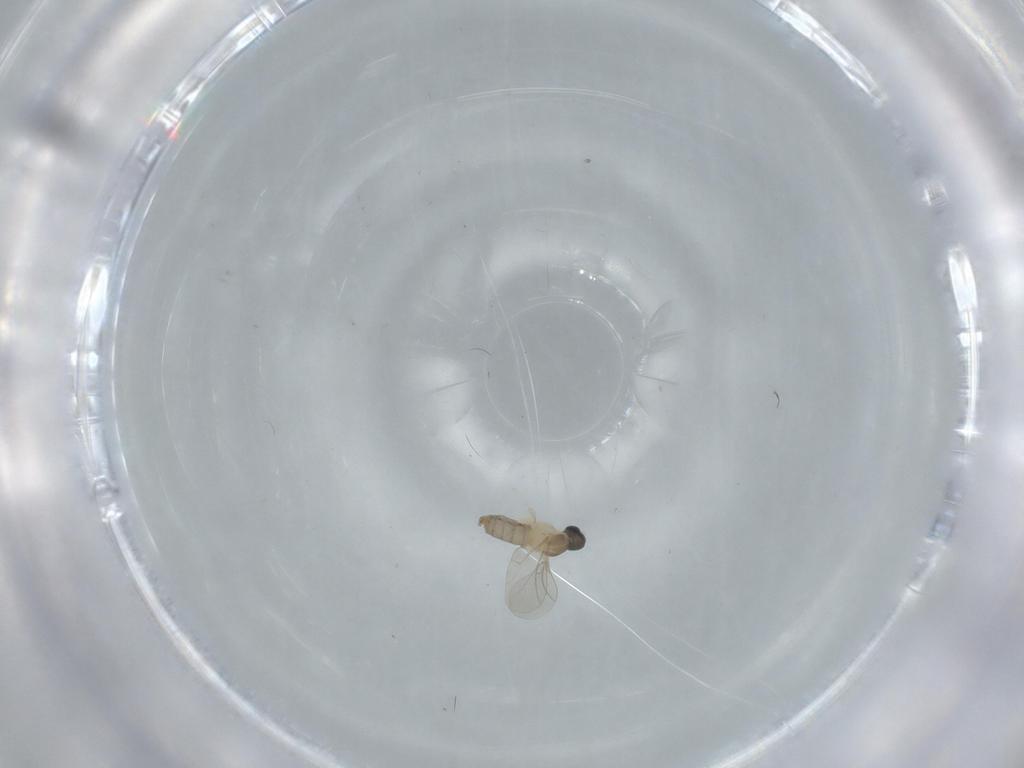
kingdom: Animalia
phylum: Arthropoda
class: Insecta
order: Diptera
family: Cecidomyiidae
